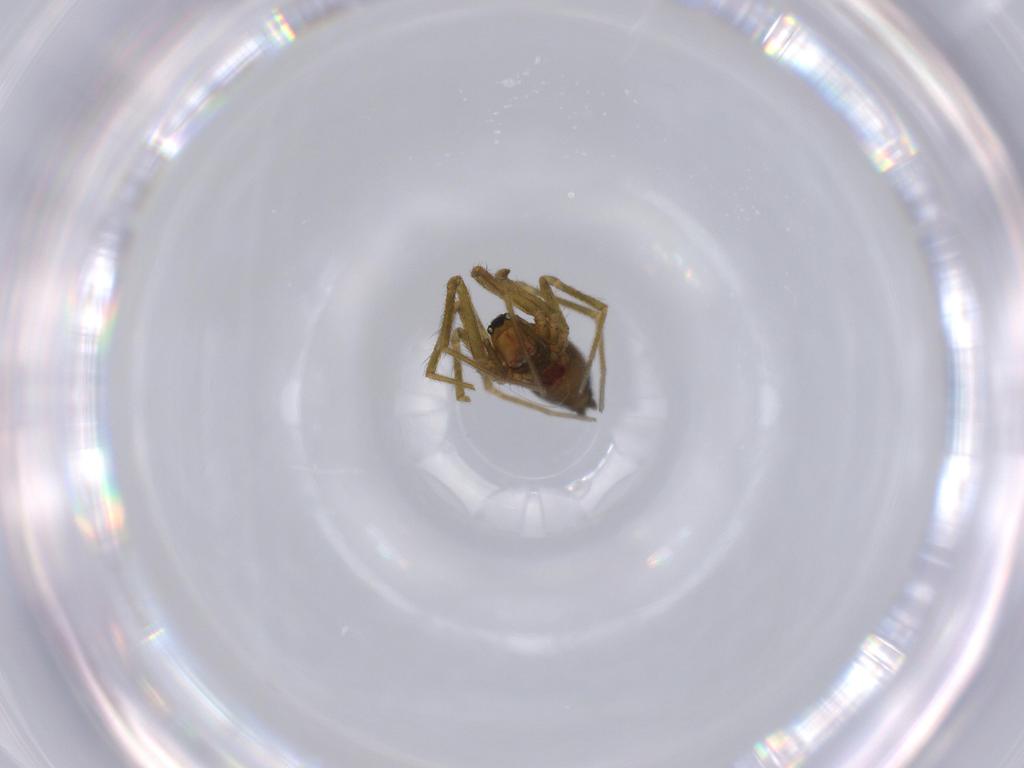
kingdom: Animalia
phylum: Arthropoda
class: Arachnida
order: Araneae
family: Linyphiidae
